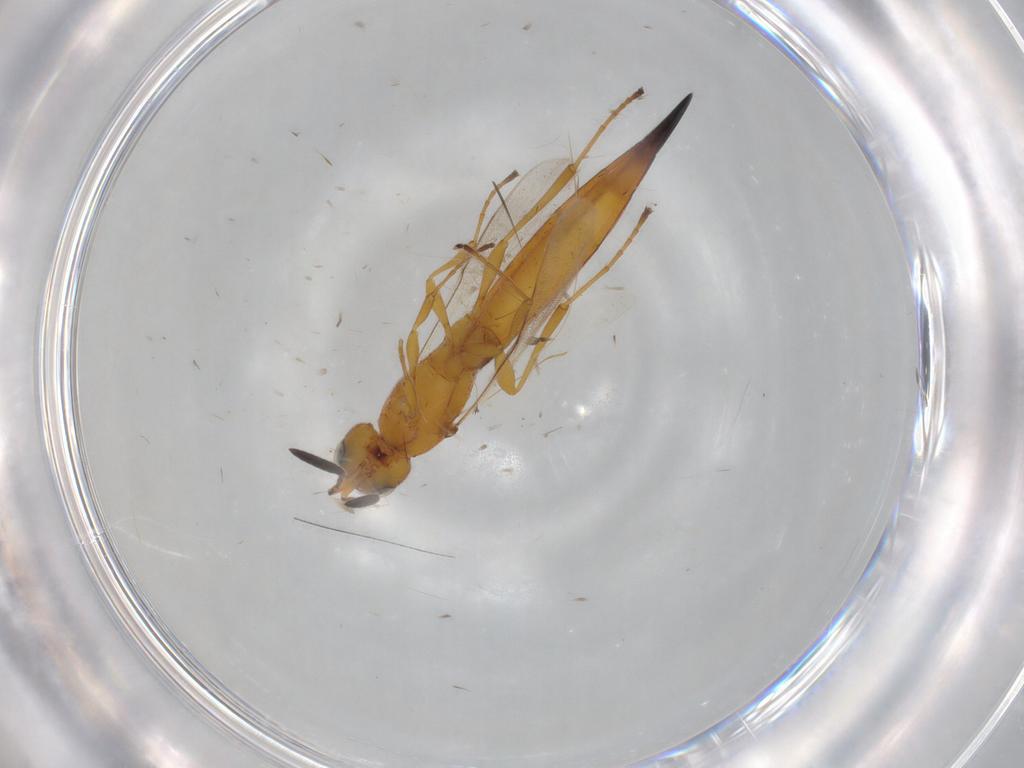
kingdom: Animalia
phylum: Arthropoda
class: Insecta
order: Hymenoptera
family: Scelionidae
